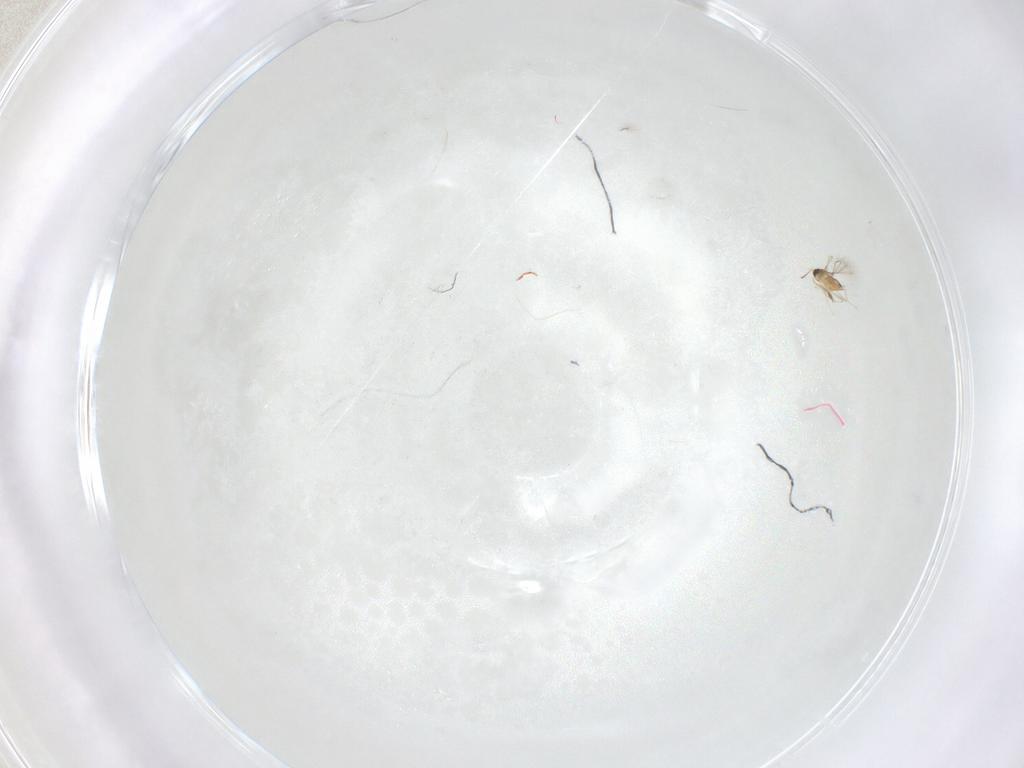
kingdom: Animalia
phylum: Arthropoda
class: Insecta
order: Hymenoptera
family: Mymaridae
